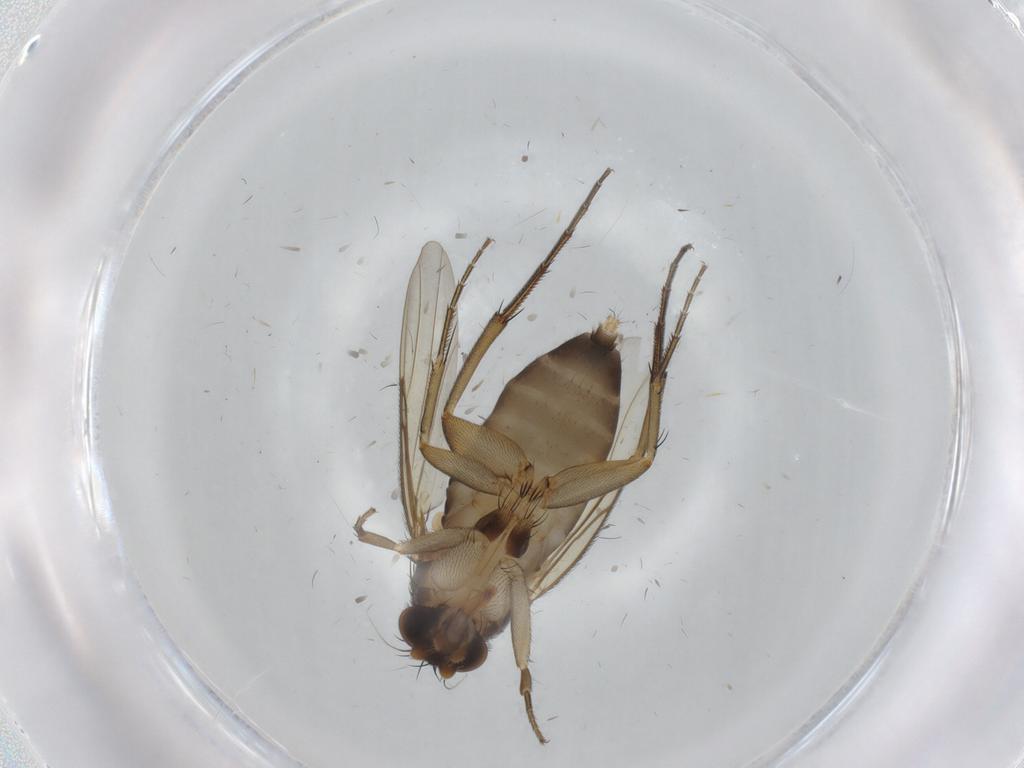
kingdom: Animalia
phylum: Arthropoda
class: Insecta
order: Diptera
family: Phoridae
